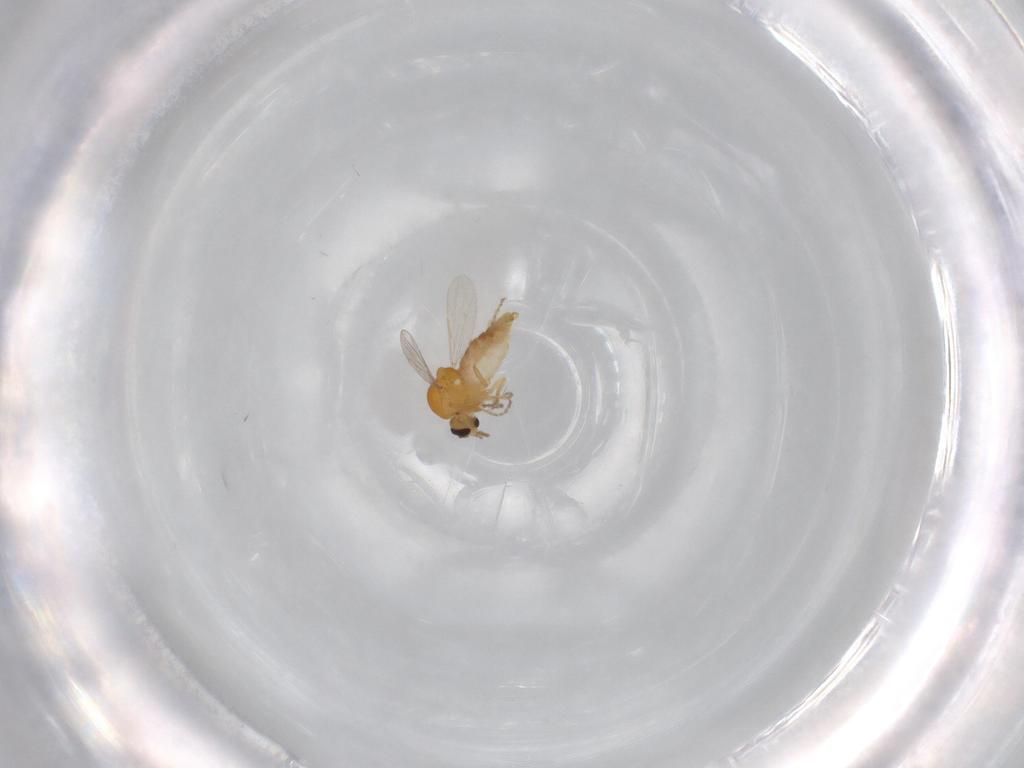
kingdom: Animalia
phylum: Arthropoda
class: Insecta
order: Diptera
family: Ceratopogonidae
